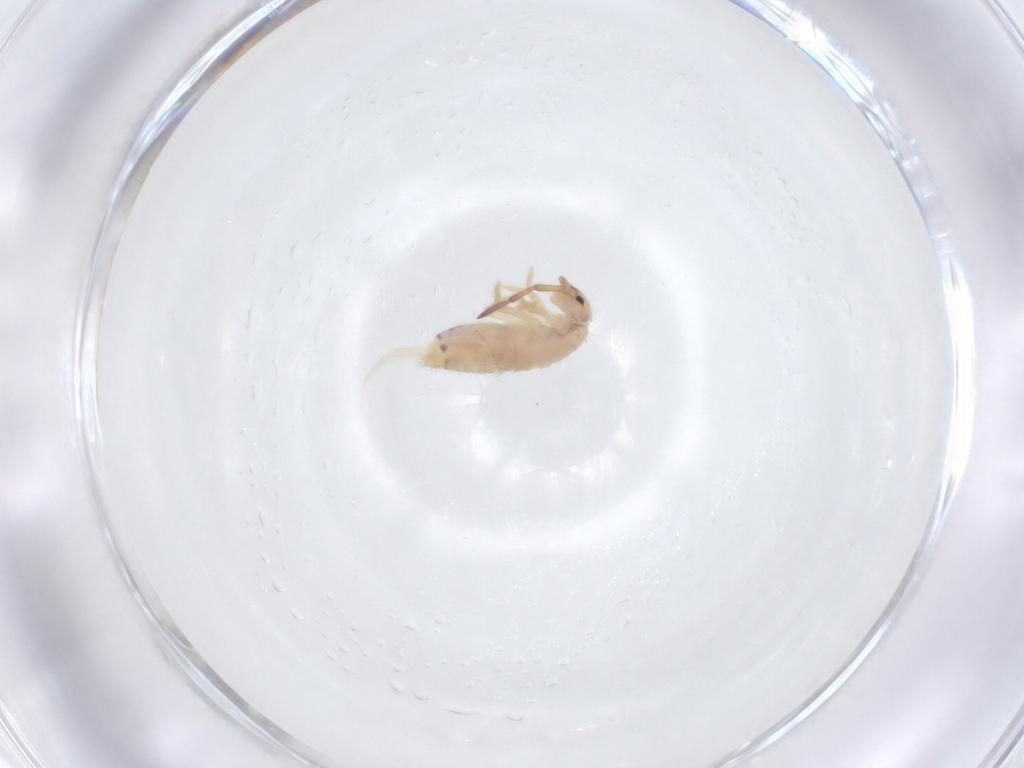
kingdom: Animalia
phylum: Arthropoda
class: Collembola
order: Entomobryomorpha
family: Entomobryidae
